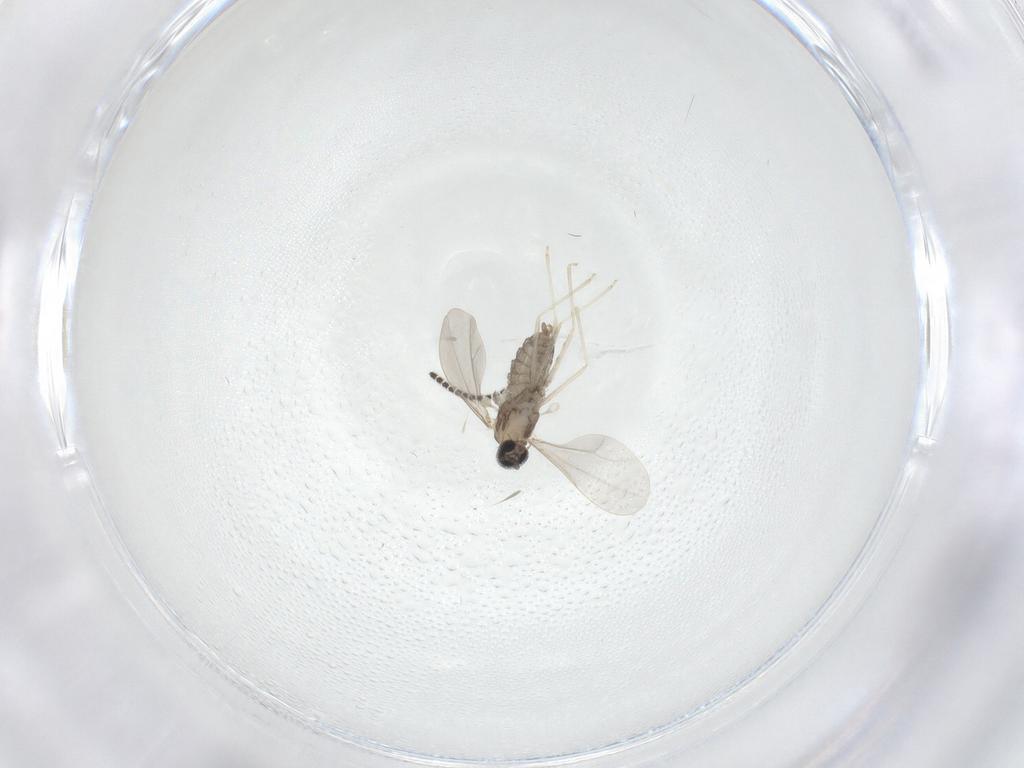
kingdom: Animalia
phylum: Arthropoda
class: Insecta
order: Diptera
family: Cecidomyiidae
